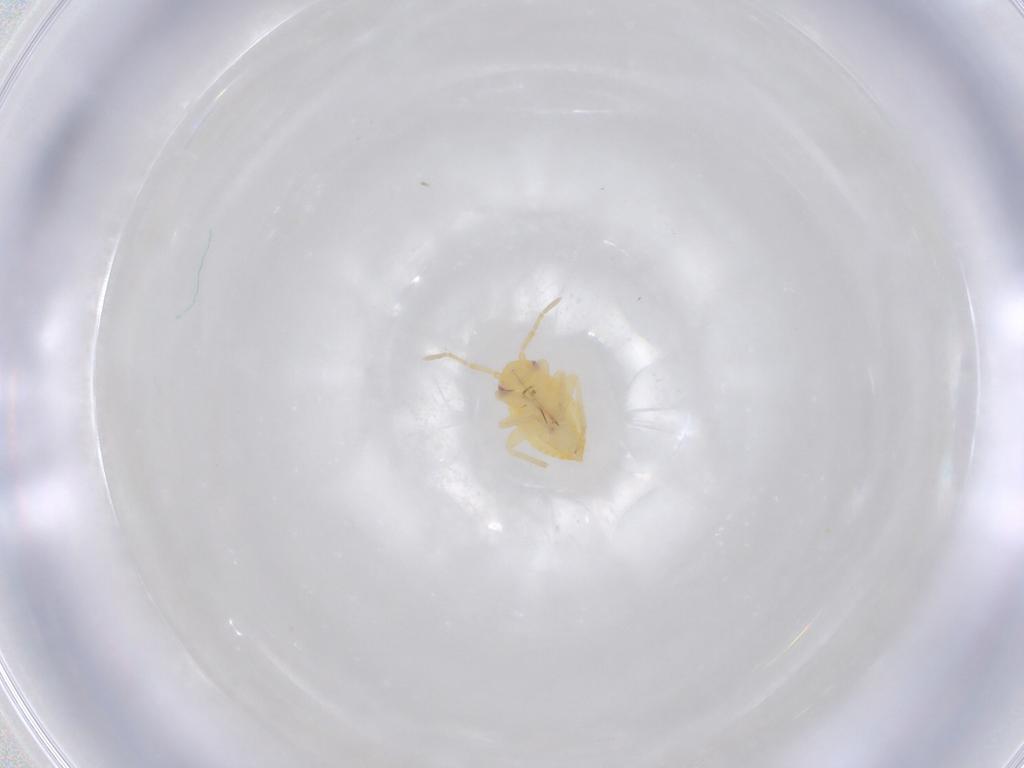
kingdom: Animalia
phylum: Arthropoda
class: Insecta
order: Hemiptera
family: Miridae
